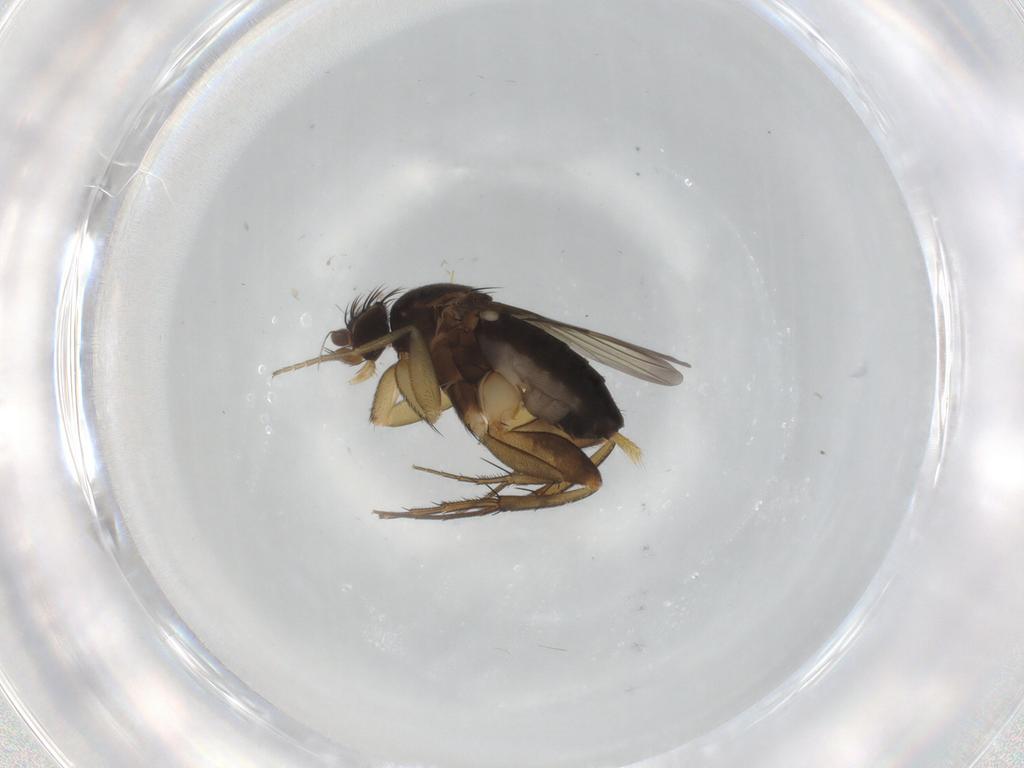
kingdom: Animalia
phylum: Arthropoda
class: Insecta
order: Diptera
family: Phoridae
